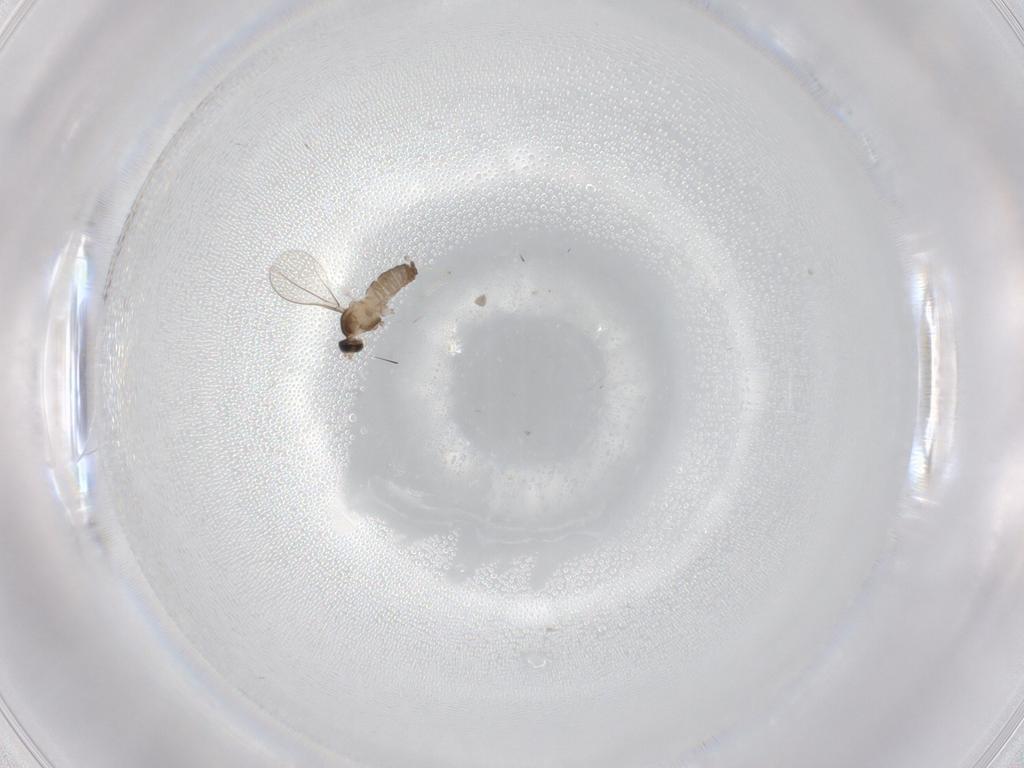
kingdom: Animalia
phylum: Arthropoda
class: Insecta
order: Diptera
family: Cecidomyiidae
